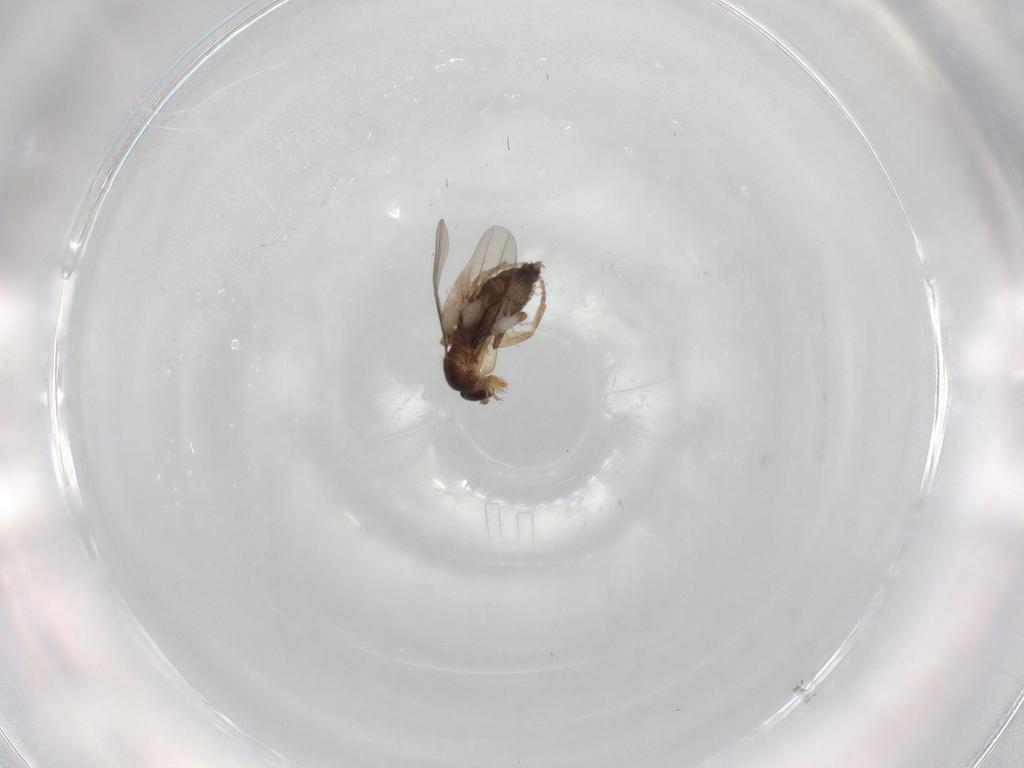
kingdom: Animalia
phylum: Arthropoda
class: Insecta
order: Diptera
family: Phoridae
